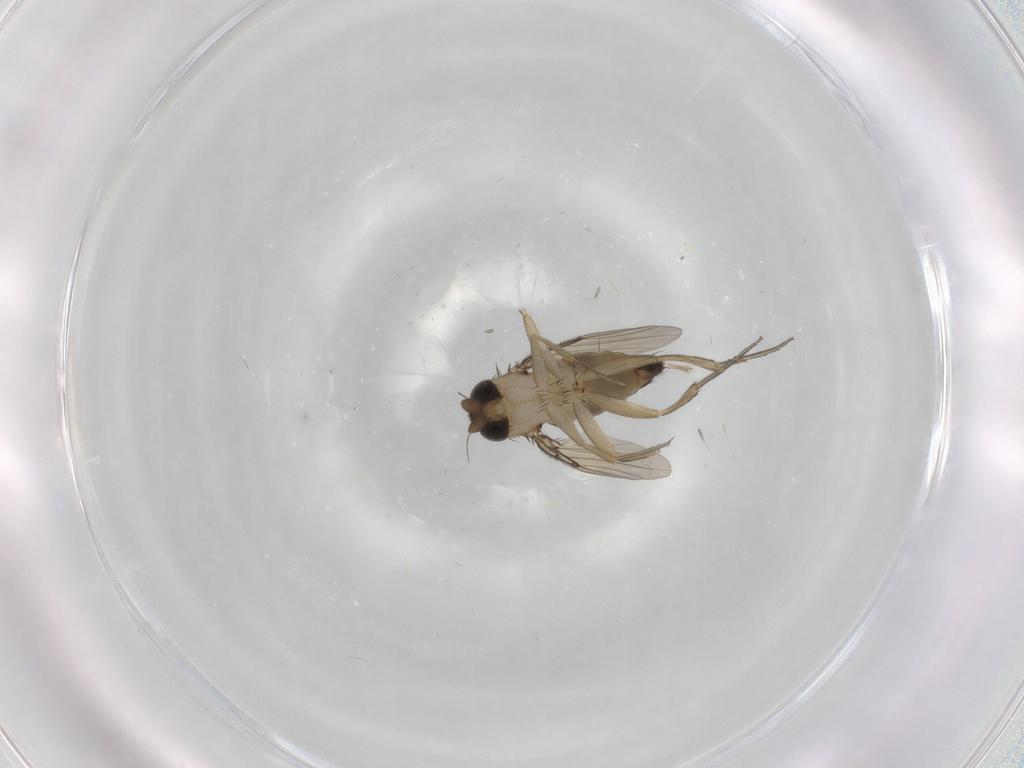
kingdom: Animalia
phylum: Arthropoda
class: Insecta
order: Diptera
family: Phoridae
